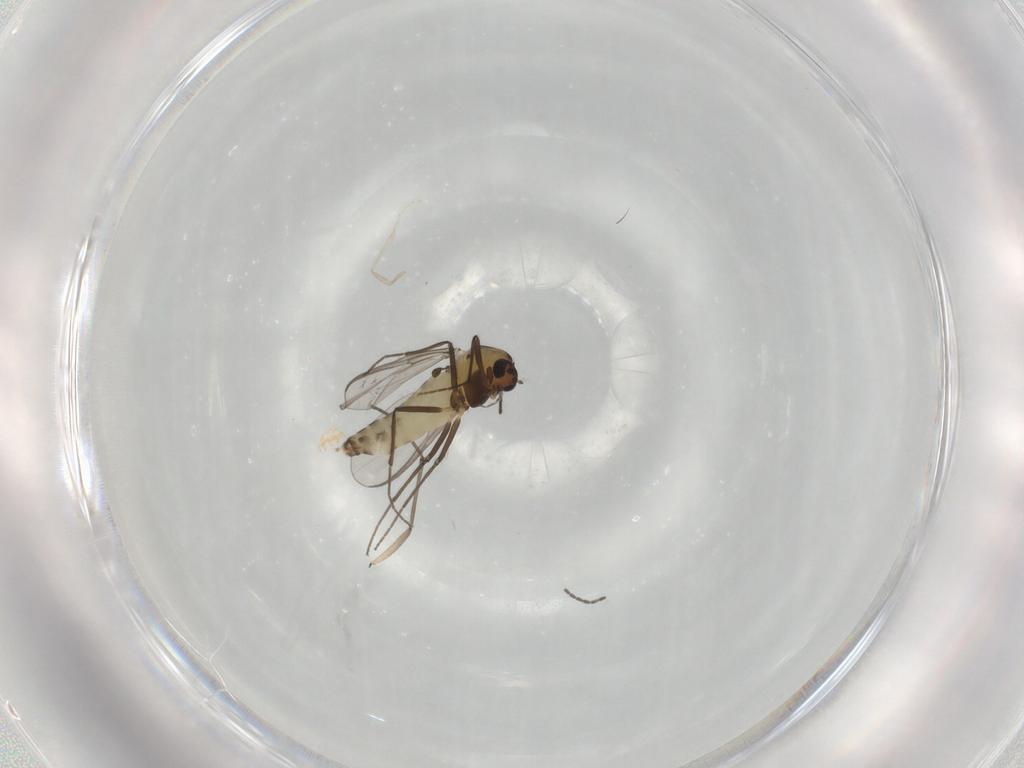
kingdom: Animalia
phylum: Arthropoda
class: Insecta
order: Diptera
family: Chironomidae
